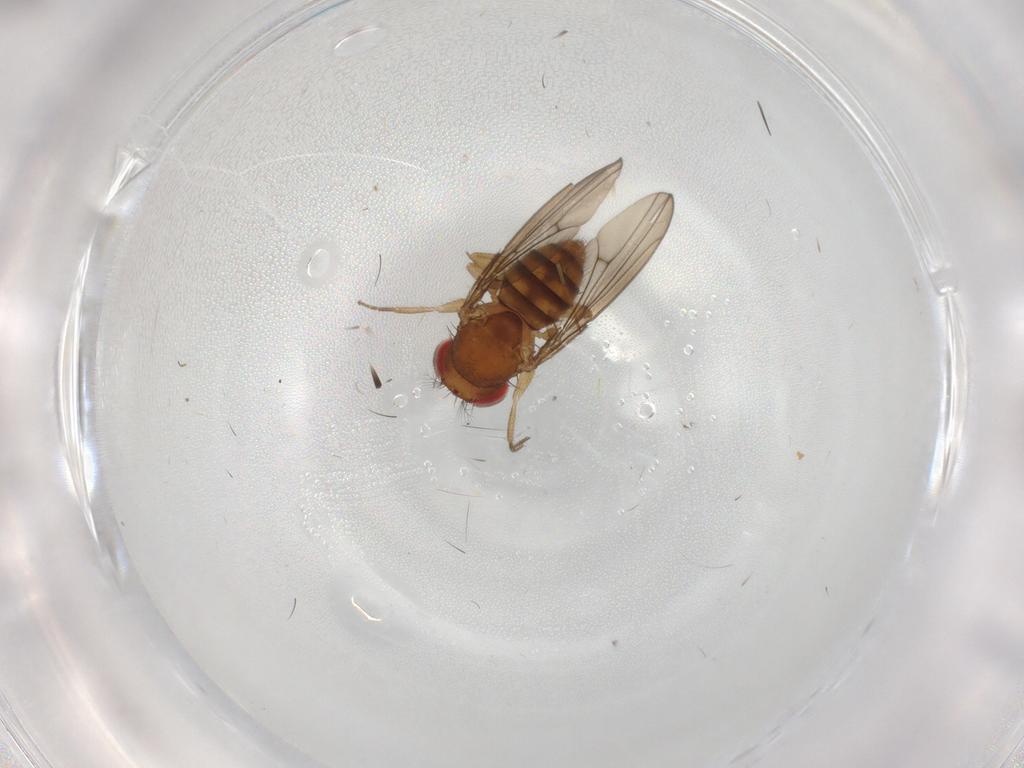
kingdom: Animalia
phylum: Arthropoda
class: Insecta
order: Diptera
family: Drosophilidae
